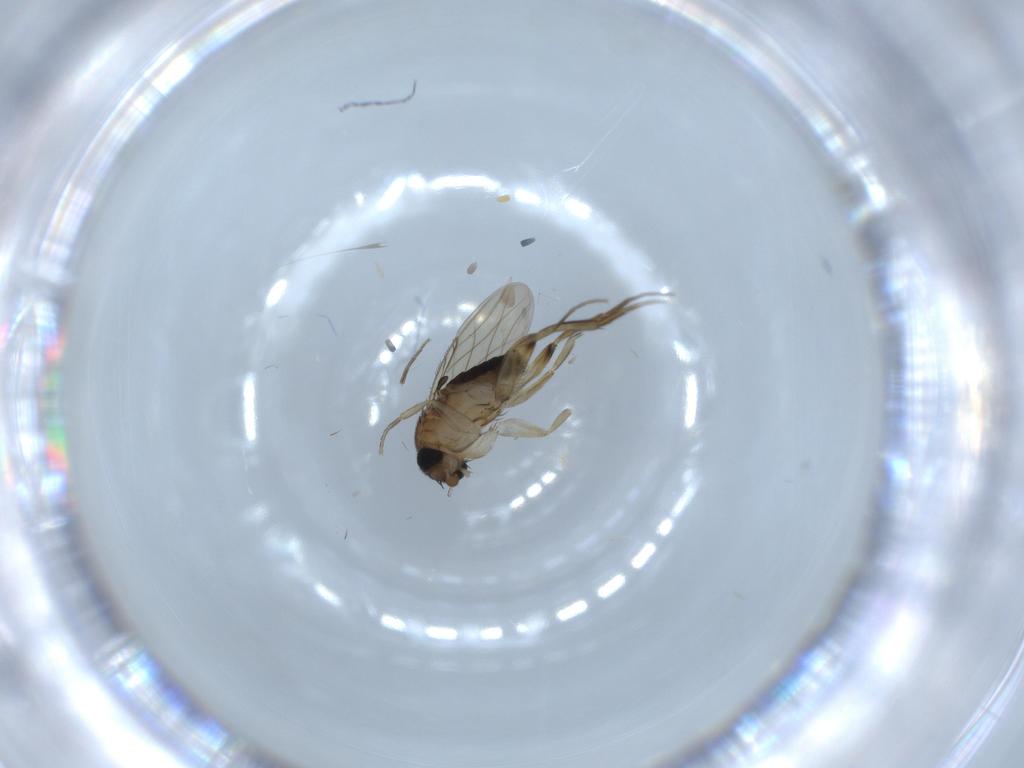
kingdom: Animalia
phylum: Arthropoda
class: Insecta
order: Diptera
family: Phoridae
